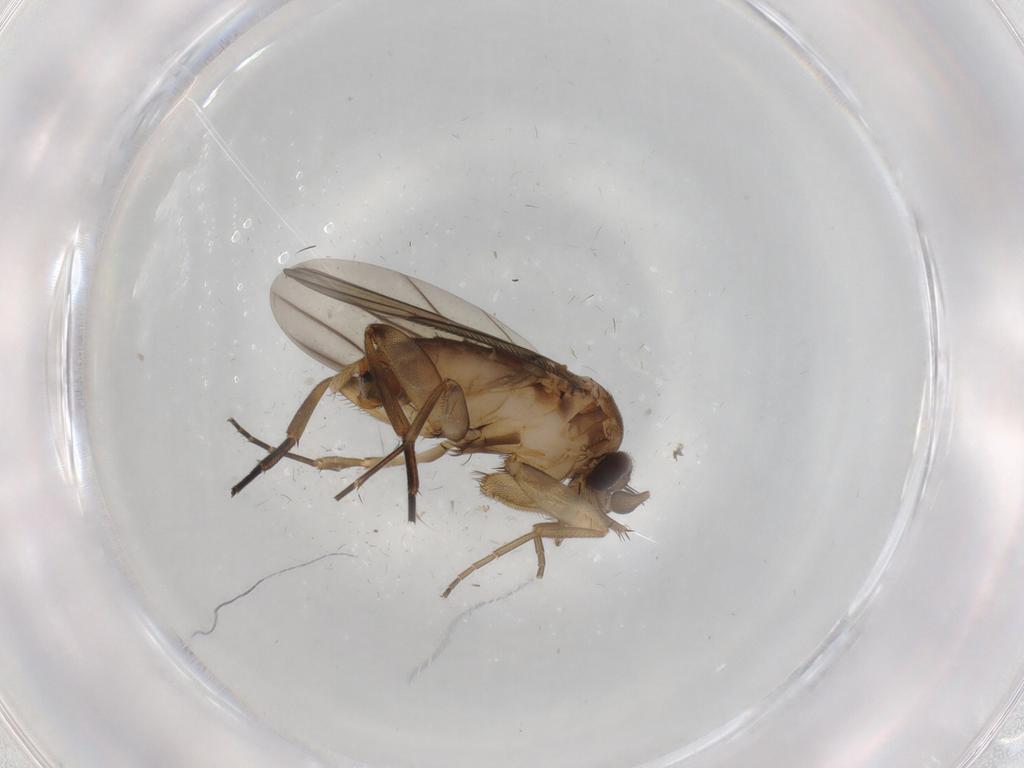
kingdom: Animalia
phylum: Arthropoda
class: Insecta
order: Diptera
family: Phoridae
